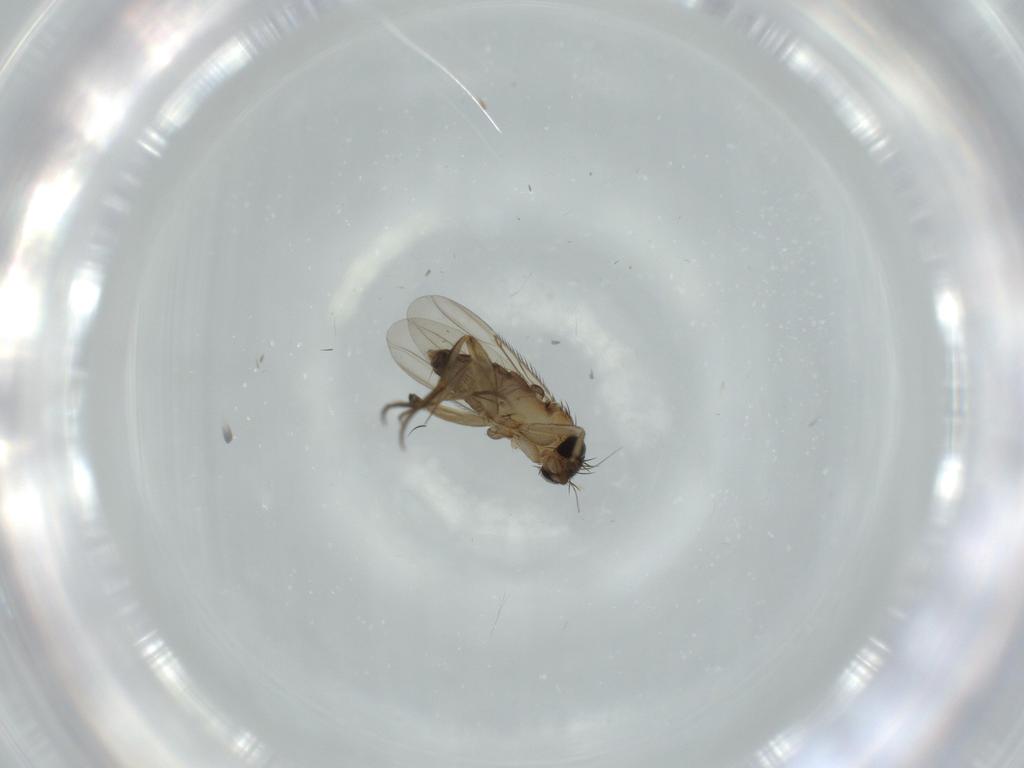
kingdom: Animalia
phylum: Arthropoda
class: Insecta
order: Diptera
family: Phoridae
